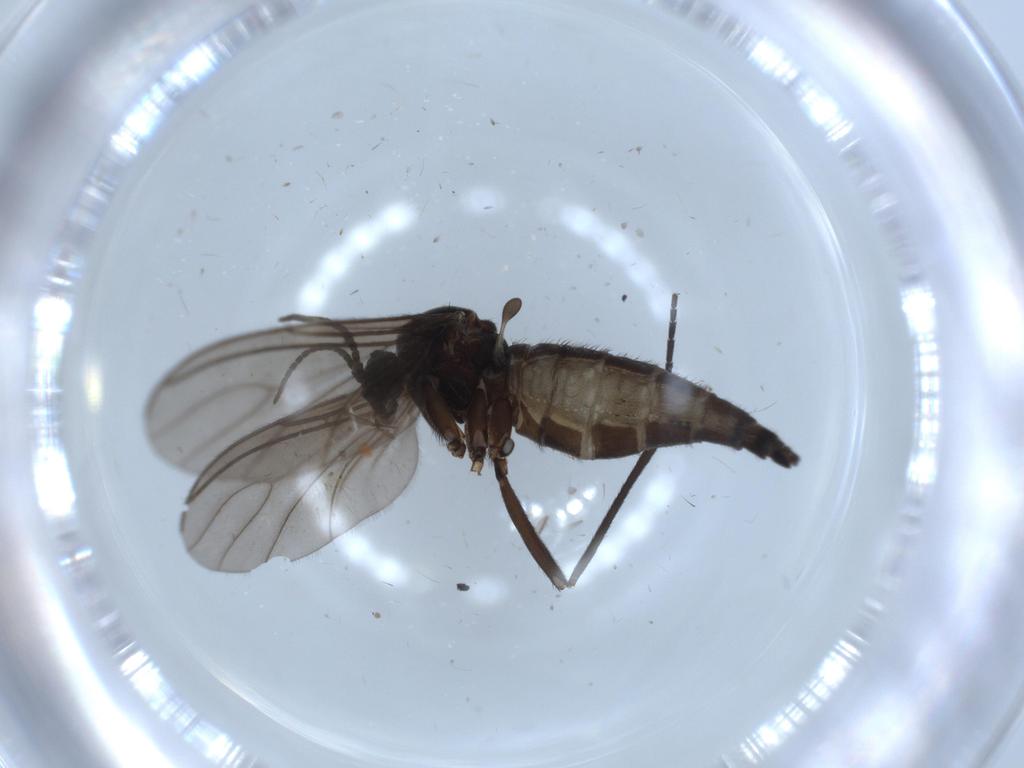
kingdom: Animalia
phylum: Arthropoda
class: Insecta
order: Diptera
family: Sciaridae
